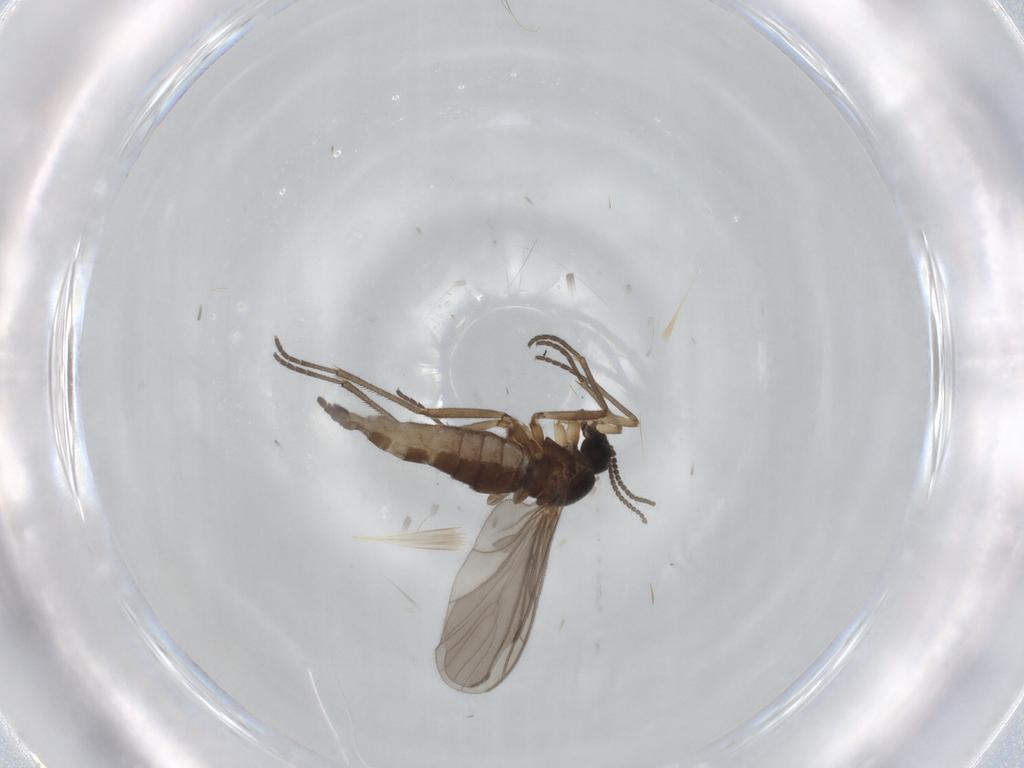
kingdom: Animalia
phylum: Arthropoda
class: Insecta
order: Diptera
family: Sciaridae
